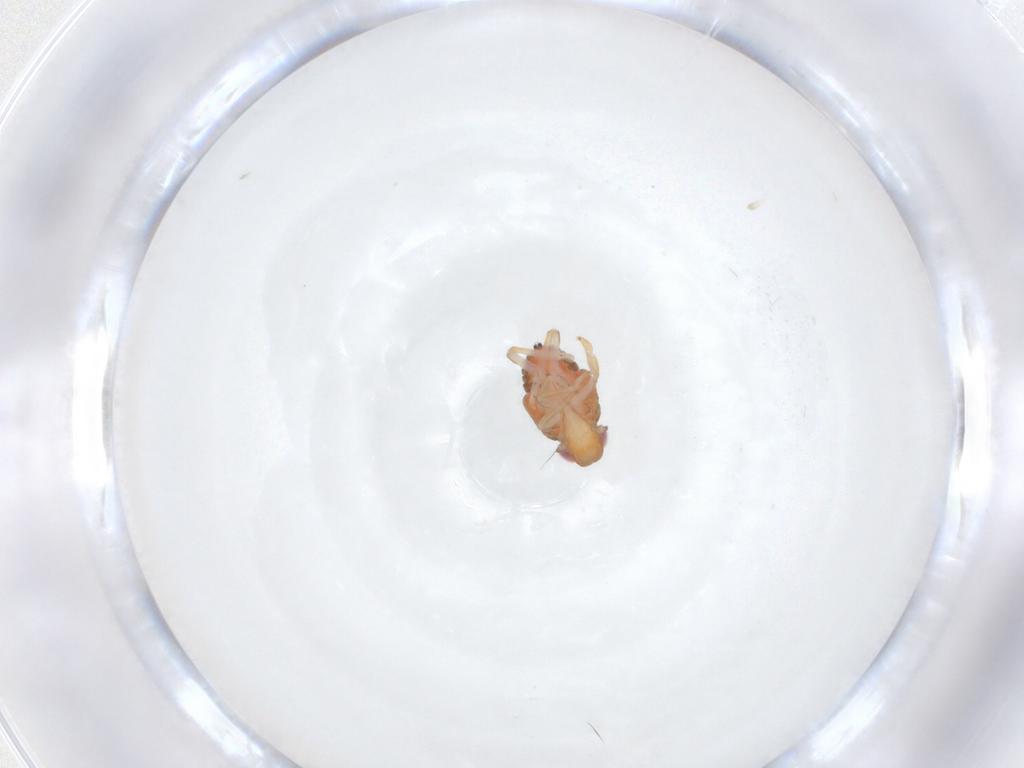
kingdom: Animalia
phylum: Arthropoda
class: Insecta
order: Hemiptera
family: Issidae
